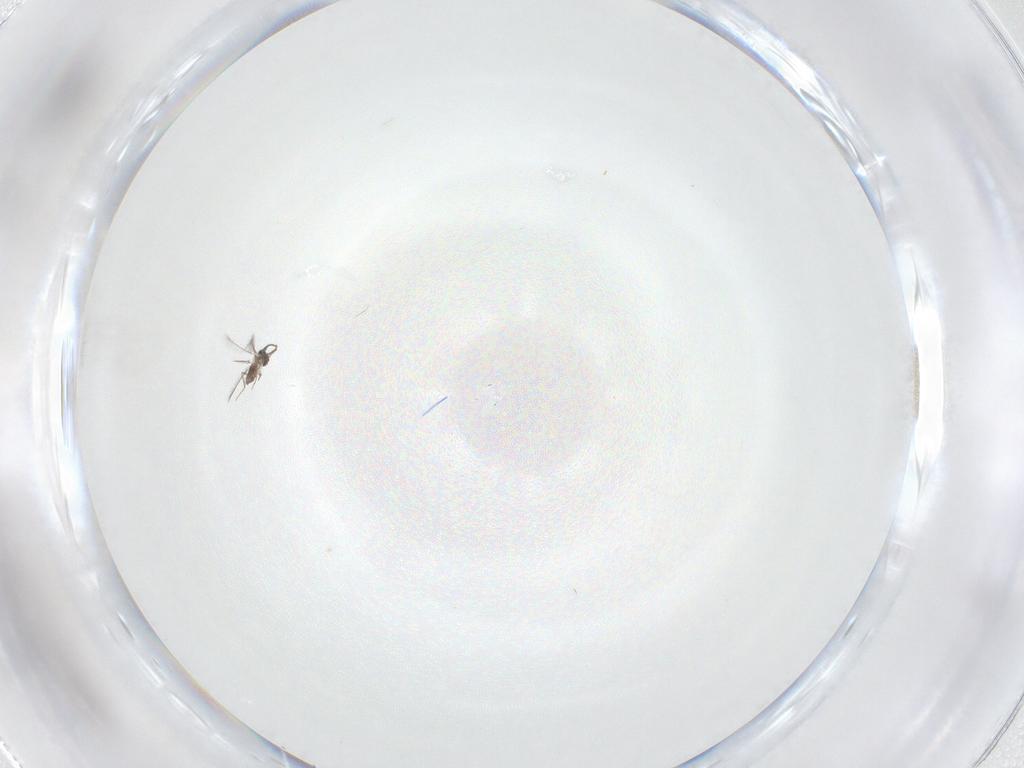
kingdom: Animalia
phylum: Arthropoda
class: Insecta
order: Hymenoptera
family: Mymaridae
